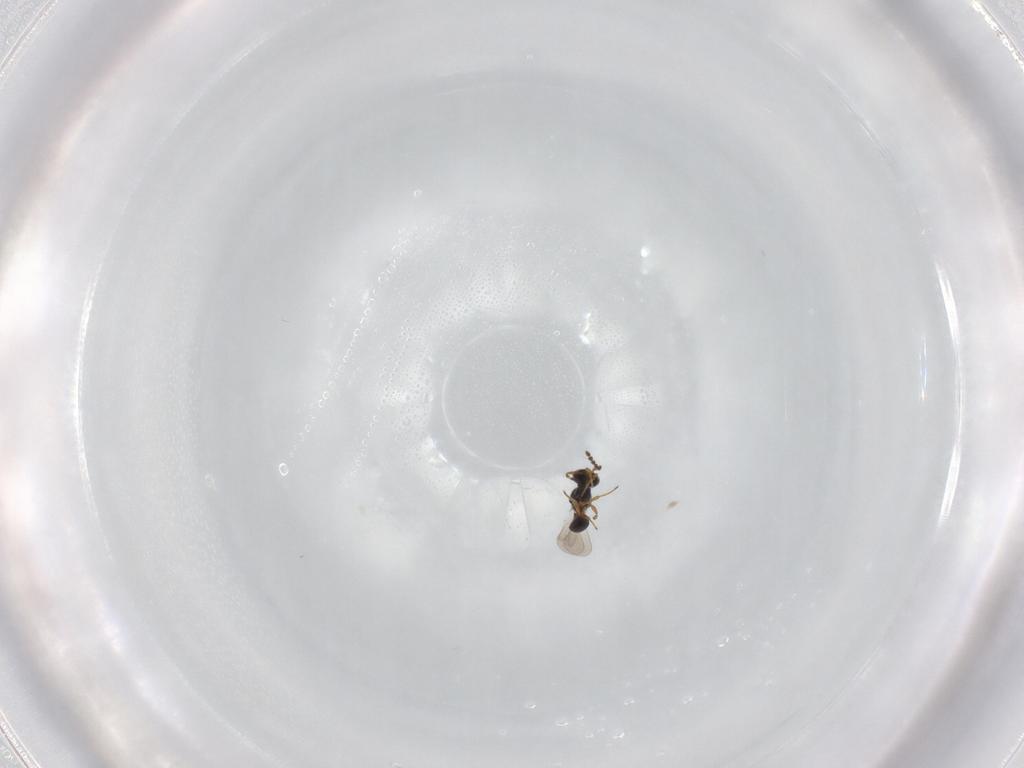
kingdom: Animalia
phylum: Arthropoda
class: Insecta
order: Hymenoptera
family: Platygastridae
